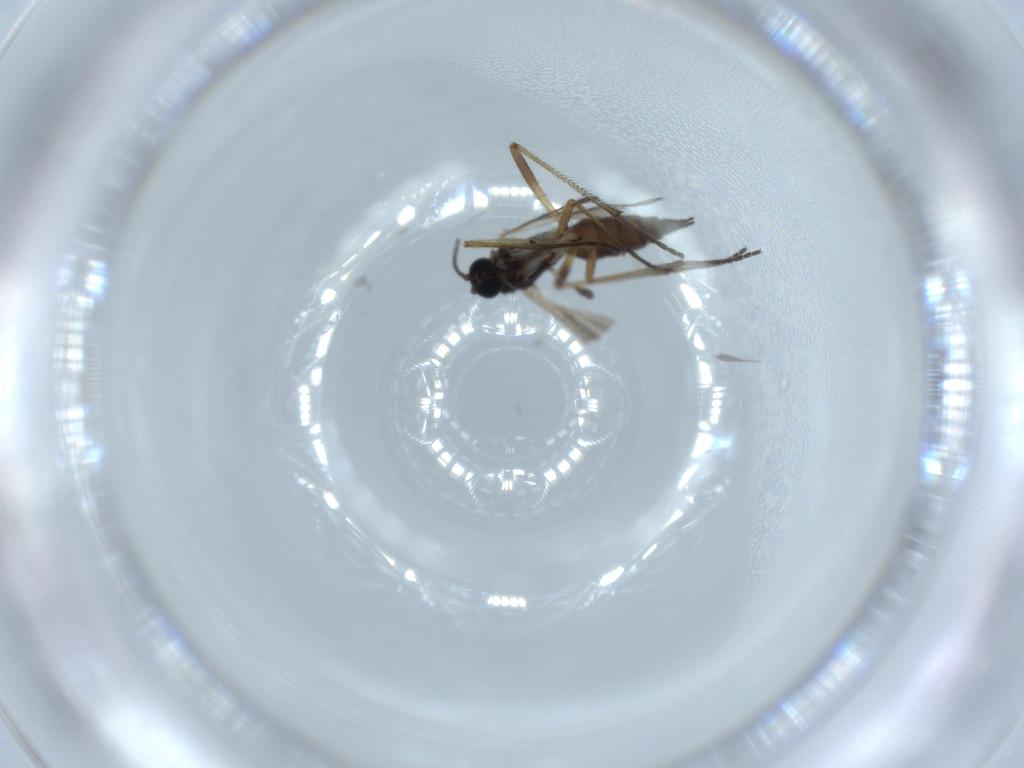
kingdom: Animalia
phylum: Arthropoda
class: Insecta
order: Diptera
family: Sciaridae
